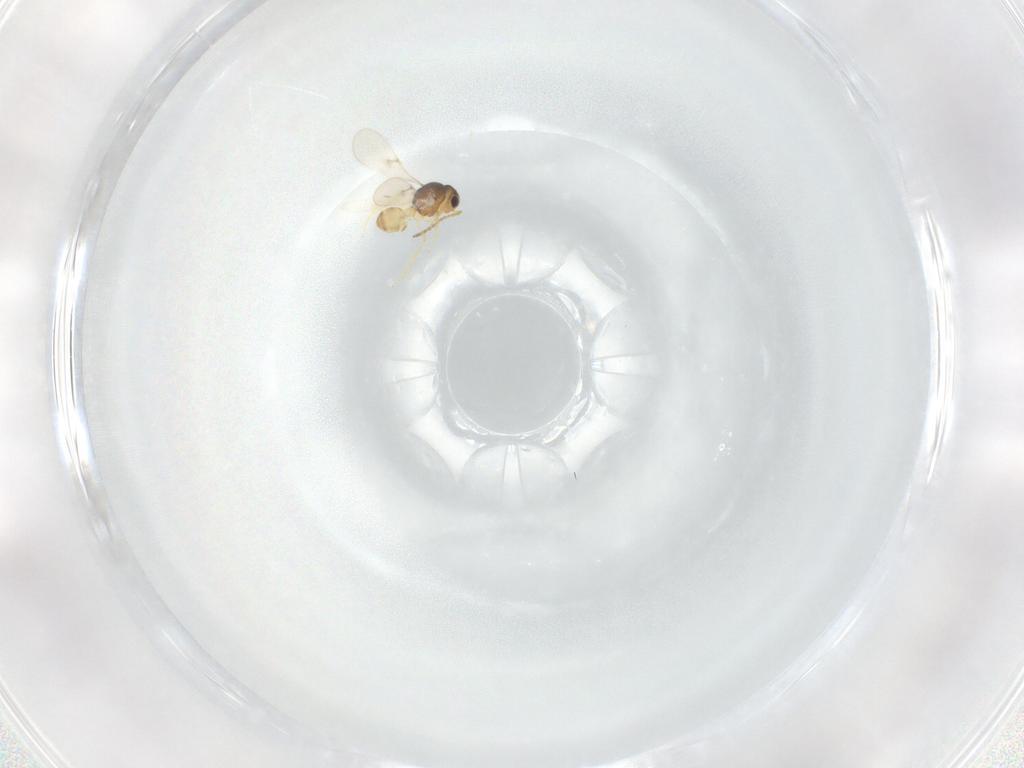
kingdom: Animalia
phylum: Arthropoda
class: Insecta
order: Hymenoptera
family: Scelionidae
